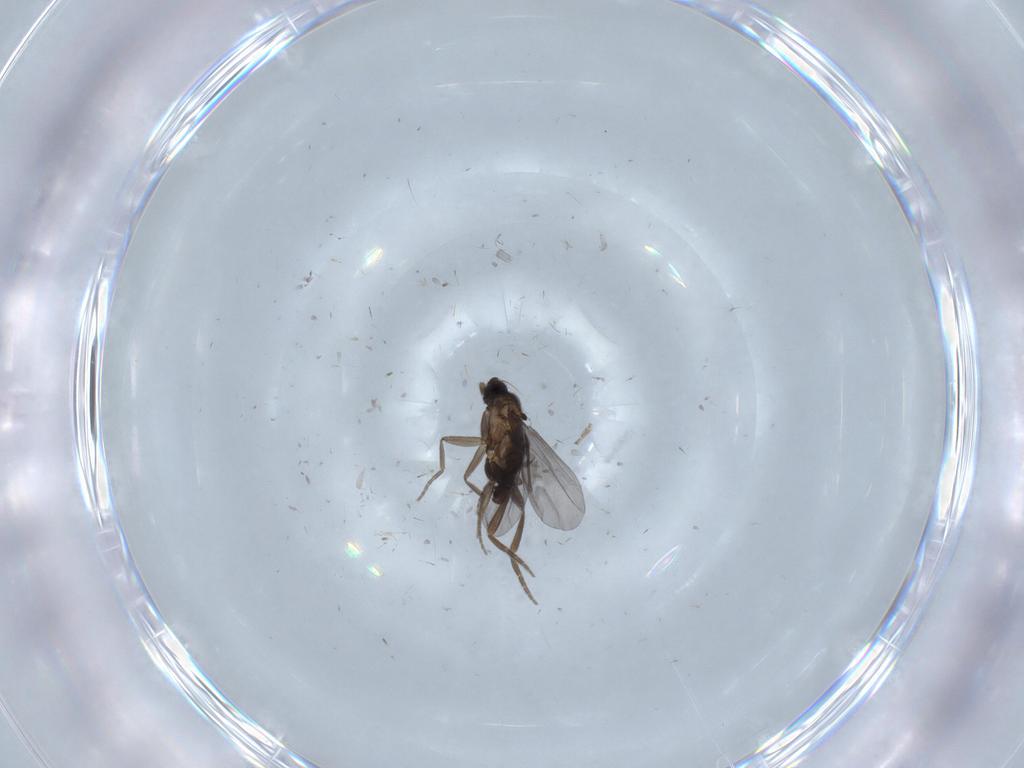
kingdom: Animalia
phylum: Arthropoda
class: Insecta
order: Diptera
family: Ceratopogonidae
